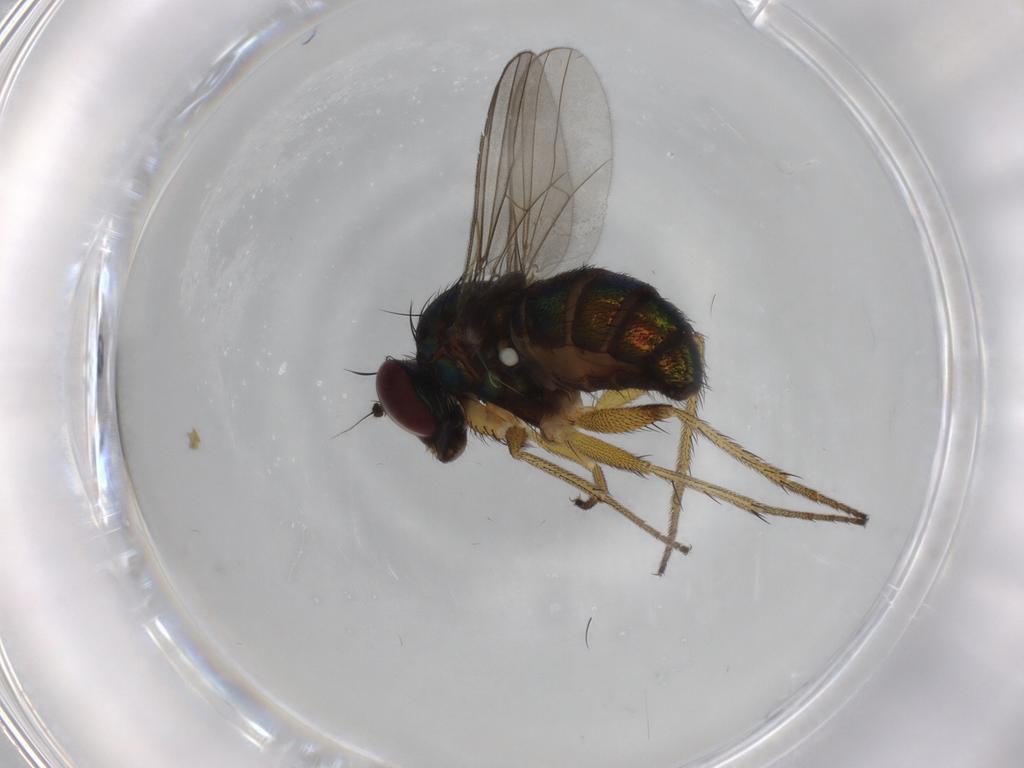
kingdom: Animalia
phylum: Arthropoda
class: Insecta
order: Diptera
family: Dolichopodidae
